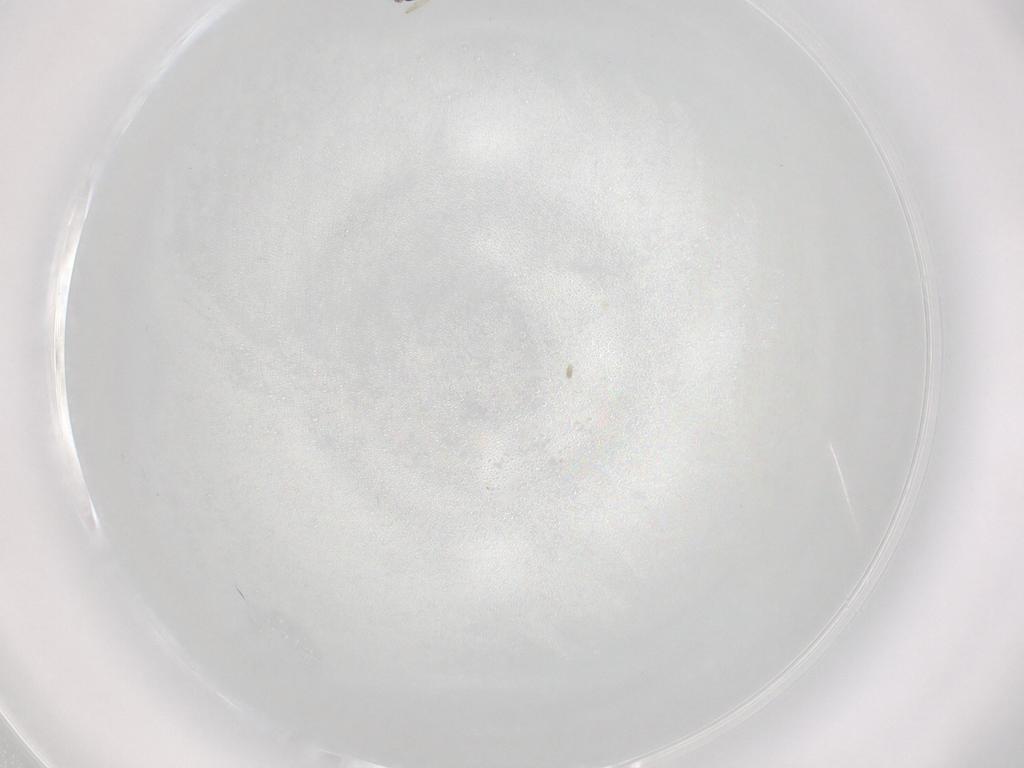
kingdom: Animalia
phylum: Arthropoda
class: Insecta
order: Diptera
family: Cecidomyiidae
